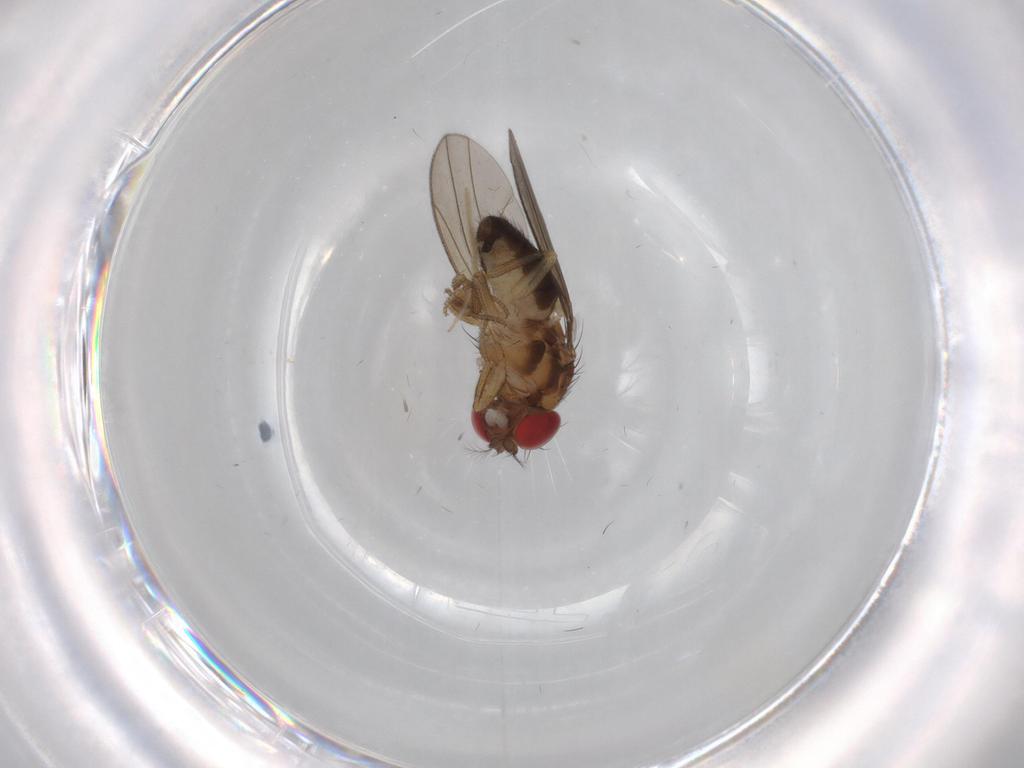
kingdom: Animalia
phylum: Arthropoda
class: Insecta
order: Diptera
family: Drosophilidae
